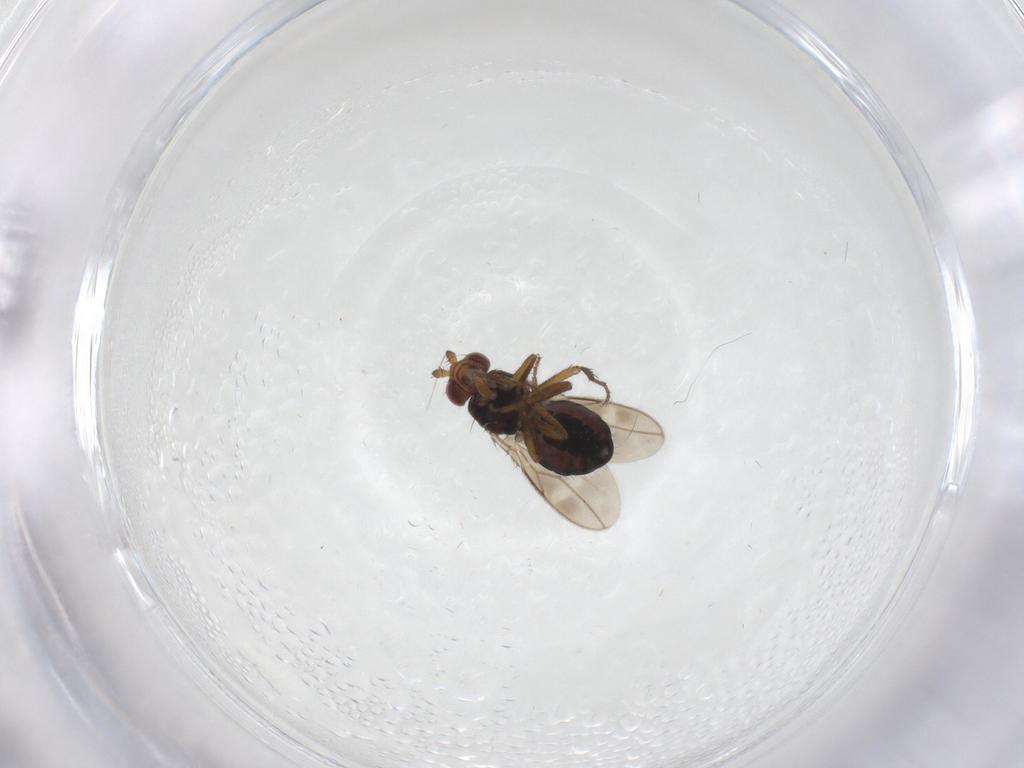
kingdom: Animalia
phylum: Arthropoda
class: Insecta
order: Diptera
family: Sphaeroceridae
